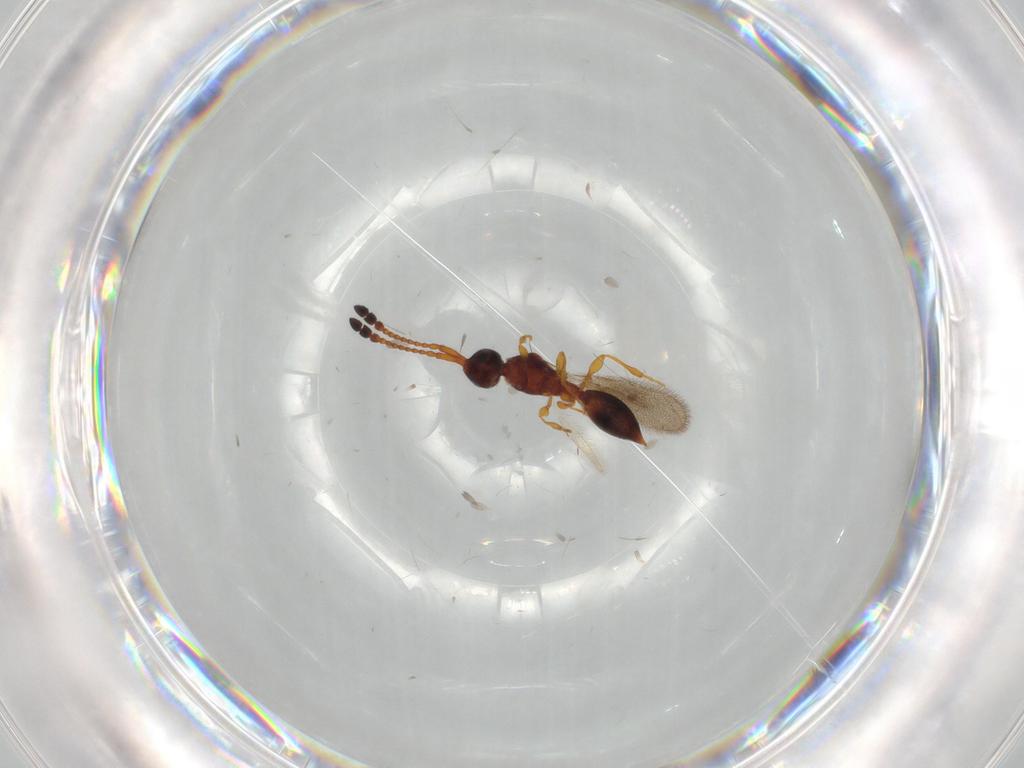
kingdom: Animalia
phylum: Arthropoda
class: Insecta
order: Hymenoptera
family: Diapriidae
